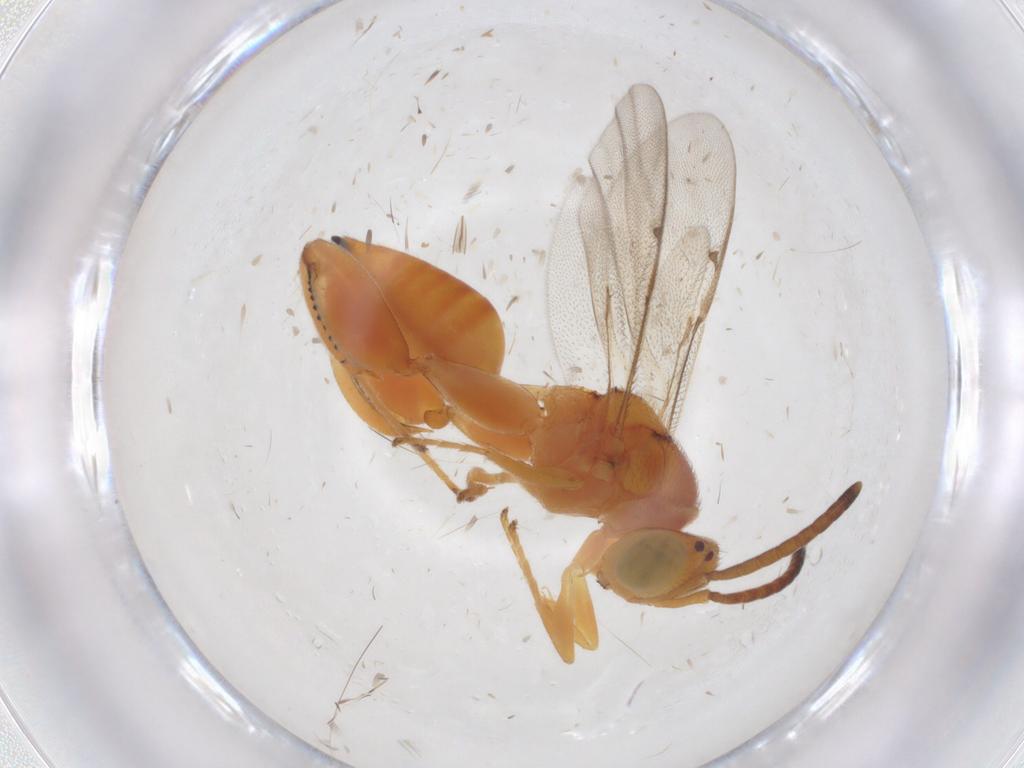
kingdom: Animalia
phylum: Arthropoda
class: Insecta
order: Hymenoptera
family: Chalcididae
